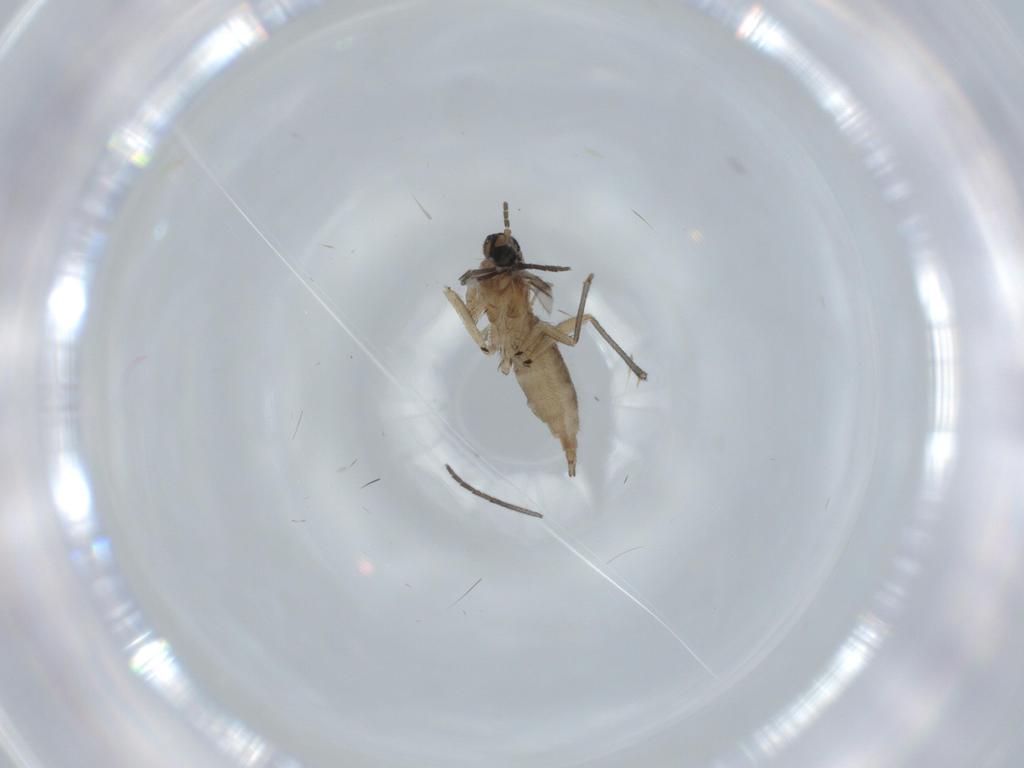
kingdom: Animalia
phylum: Arthropoda
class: Insecta
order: Diptera
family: Sciaridae
